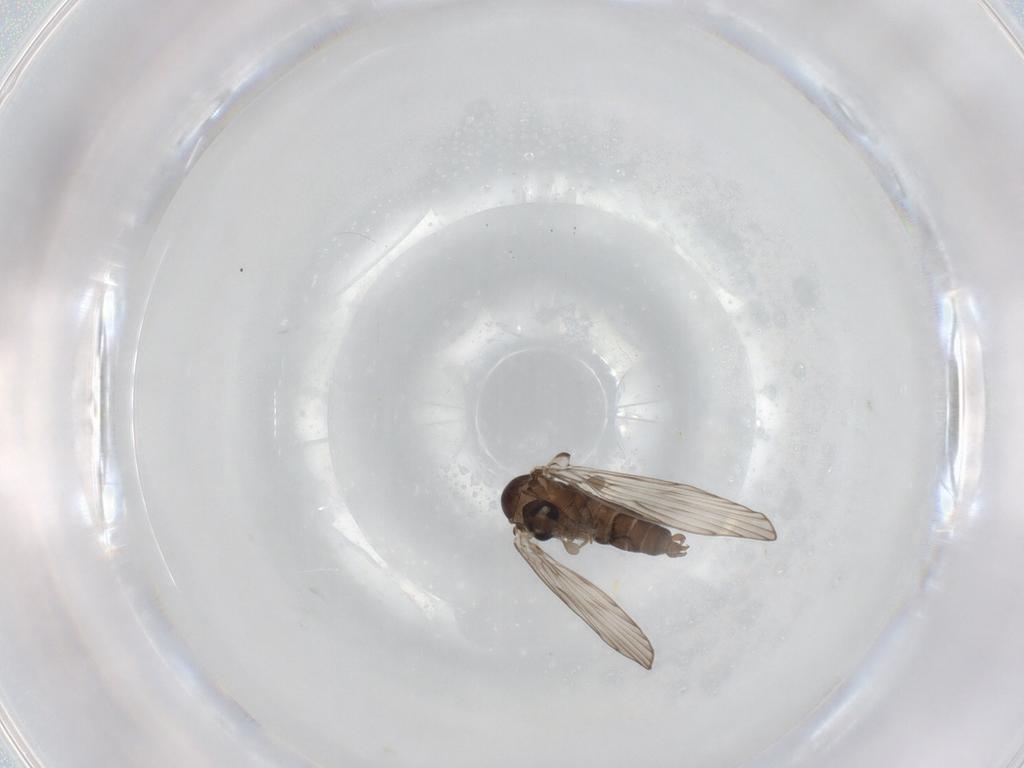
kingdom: Animalia
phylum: Arthropoda
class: Insecta
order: Diptera
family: Psychodidae
